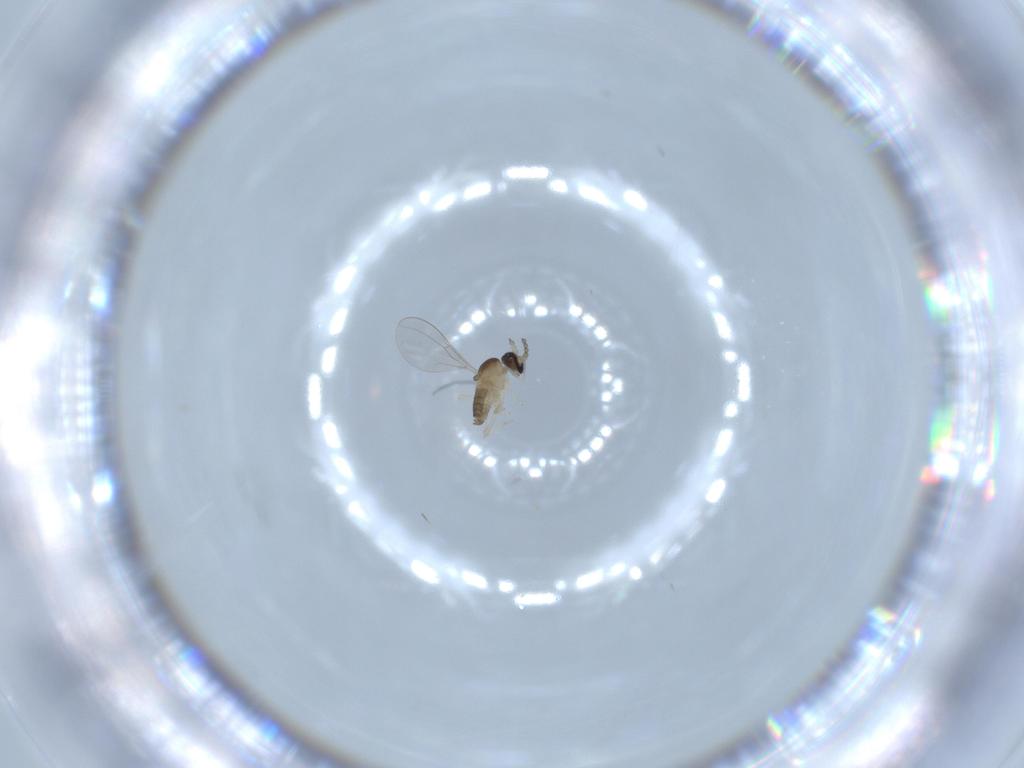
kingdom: Animalia
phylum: Arthropoda
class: Insecta
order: Diptera
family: Cecidomyiidae
